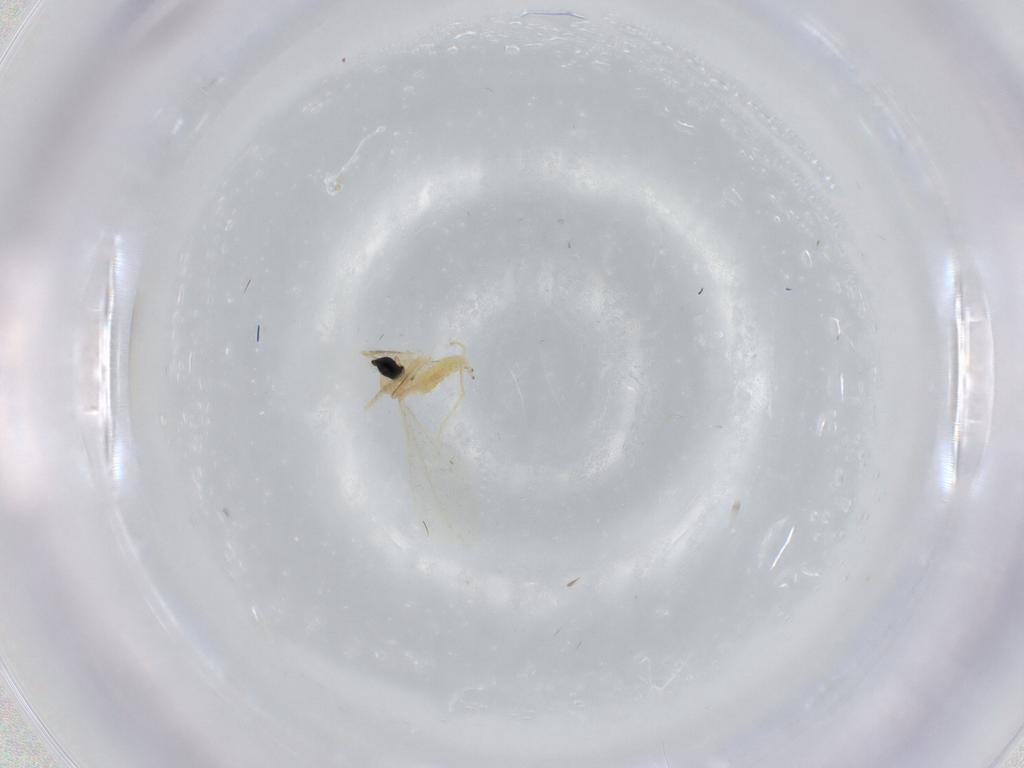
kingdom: Animalia
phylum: Arthropoda
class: Insecta
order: Diptera
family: Cecidomyiidae
